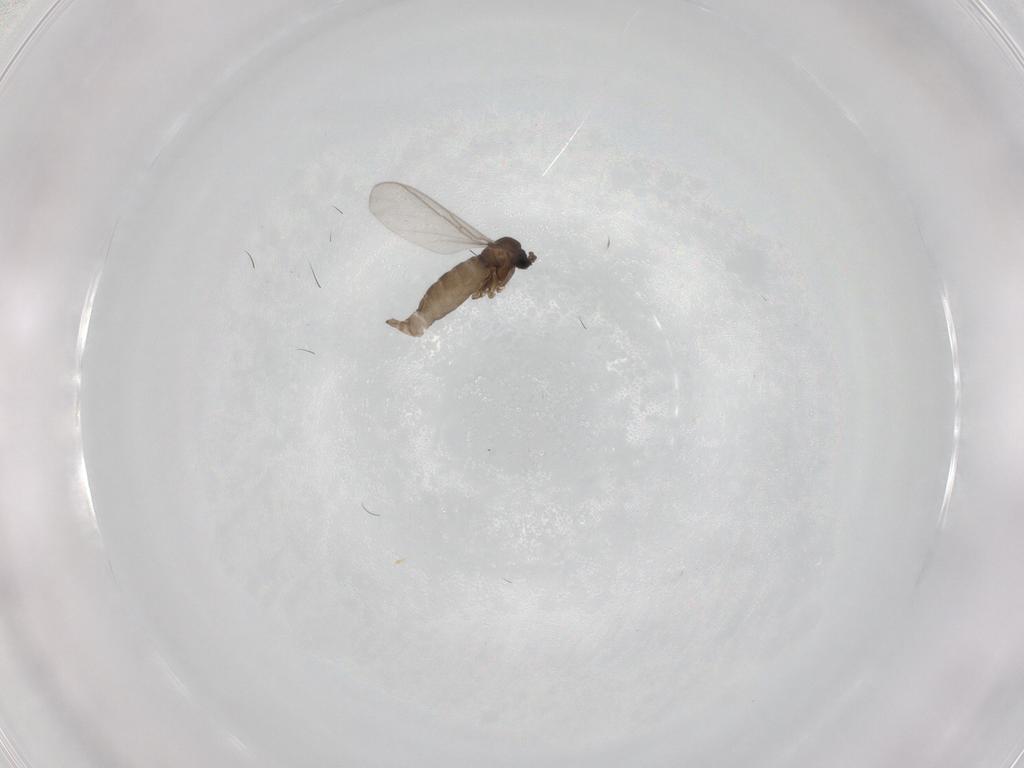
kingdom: Animalia
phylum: Arthropoda
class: Insecta
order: Diptera
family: Sciaridae
